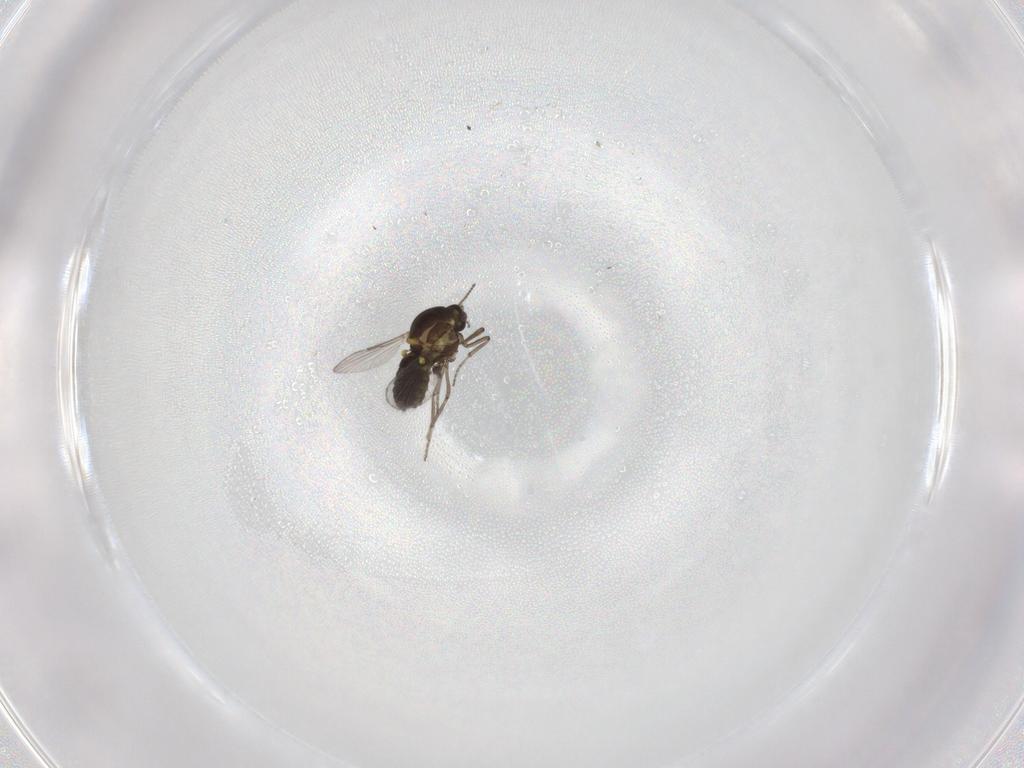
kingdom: Animalia
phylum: Arthropoda
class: Insecta
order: Diptera
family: Chironomidae
